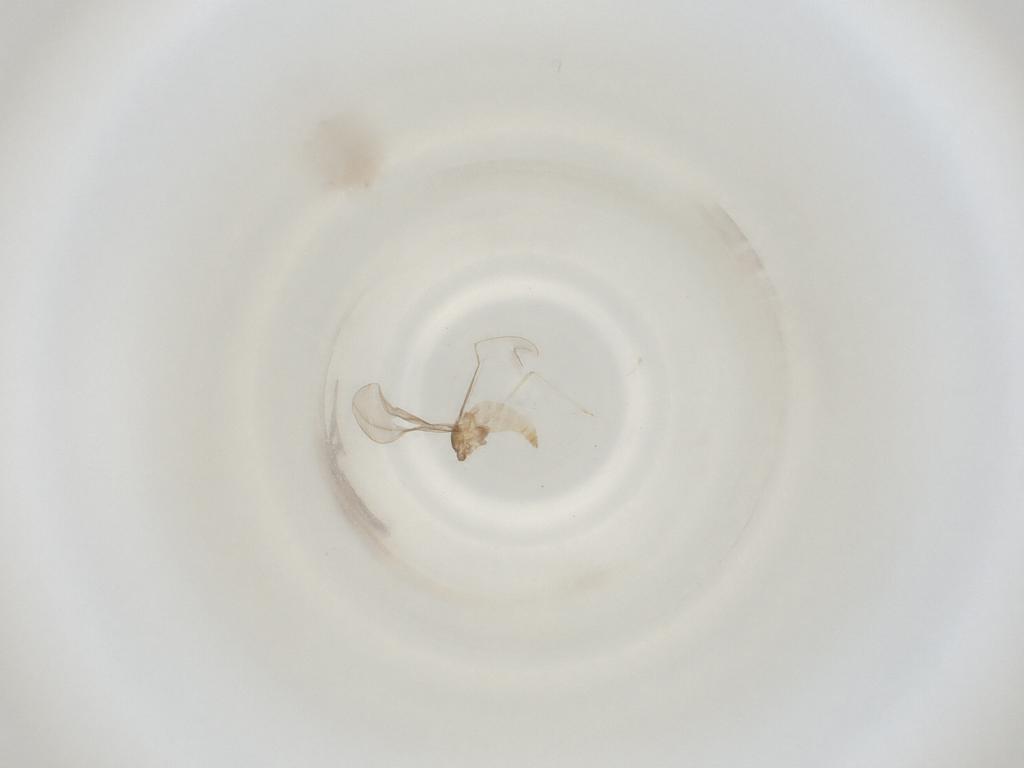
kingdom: Animalia
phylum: Arthropoda
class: Insecta
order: Diptera
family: Cecidomyiidae
